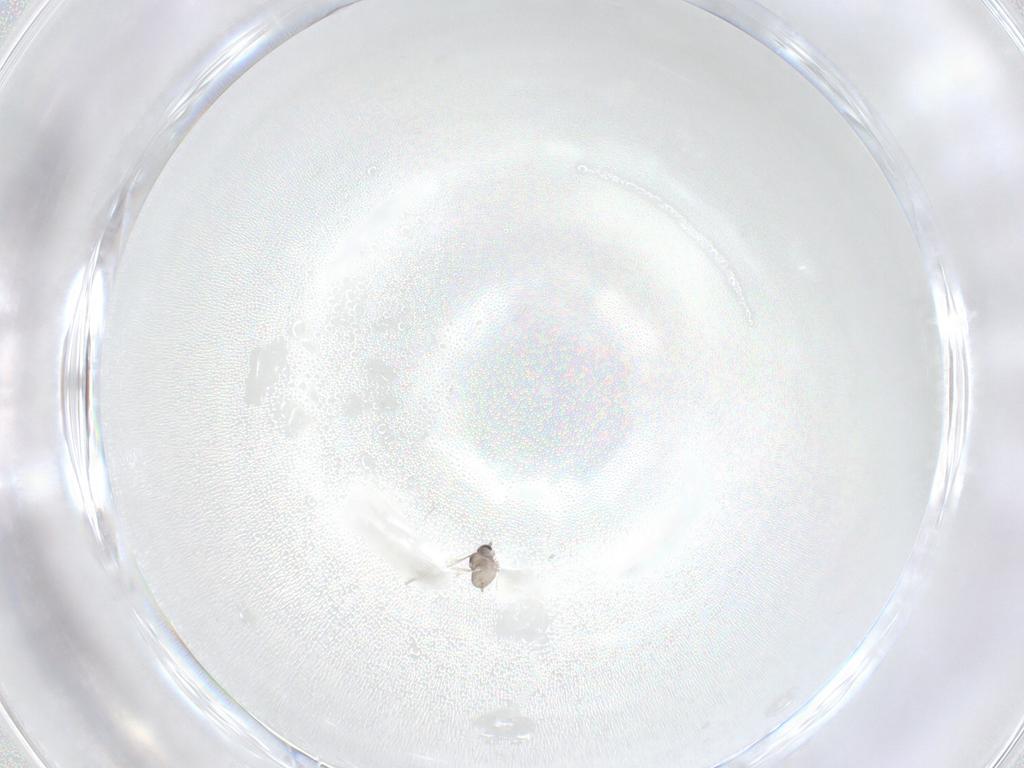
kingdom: Animalia
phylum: Arthropoda
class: Insecta
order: Diptera
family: Cecidomyiidae
